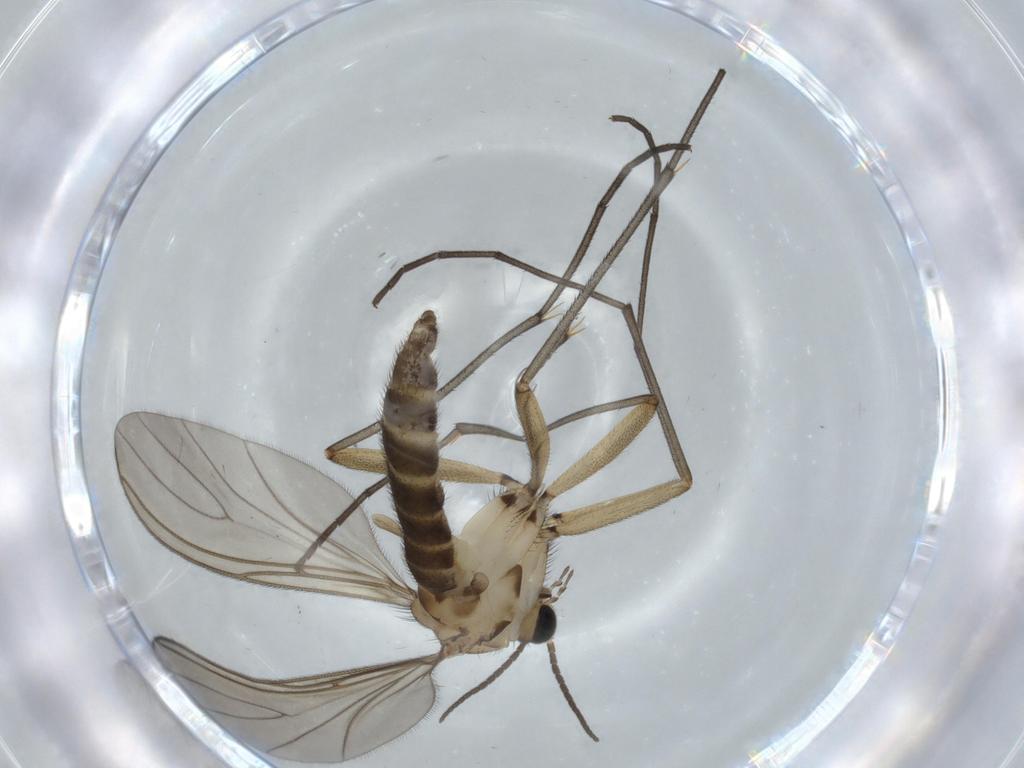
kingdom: Animalia
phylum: Arthropoda
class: Insecta
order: Diptera
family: Sciaridae
